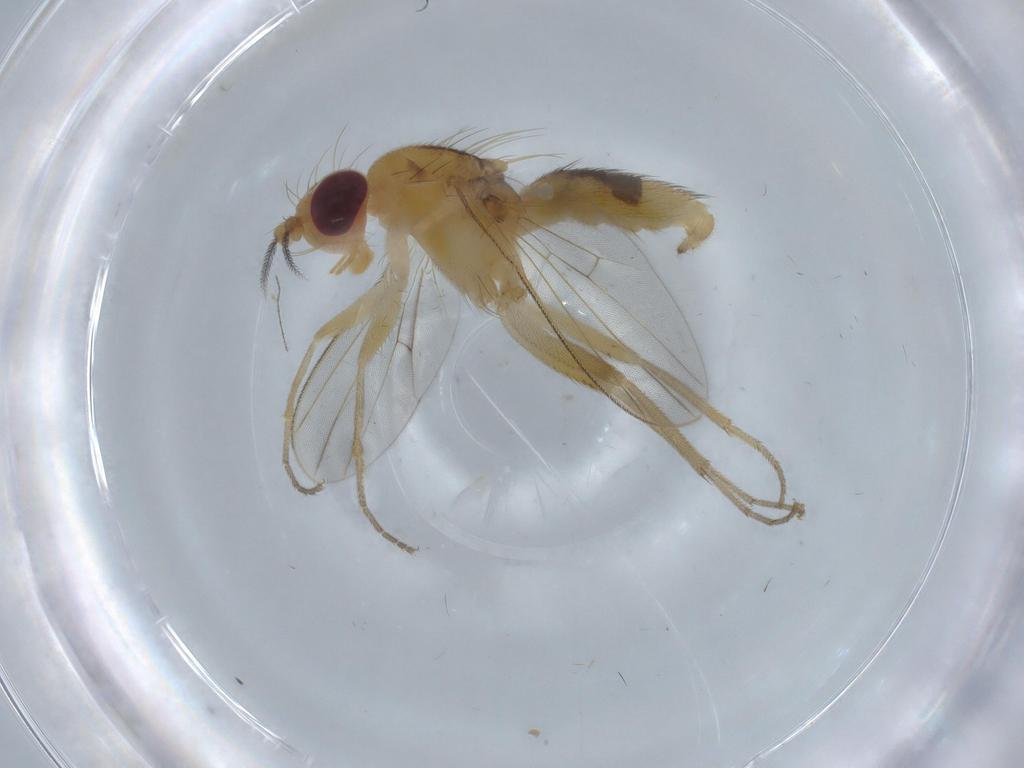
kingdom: Animalia
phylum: Arthropoda
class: Insecta
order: Diptera
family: Clusiidae
